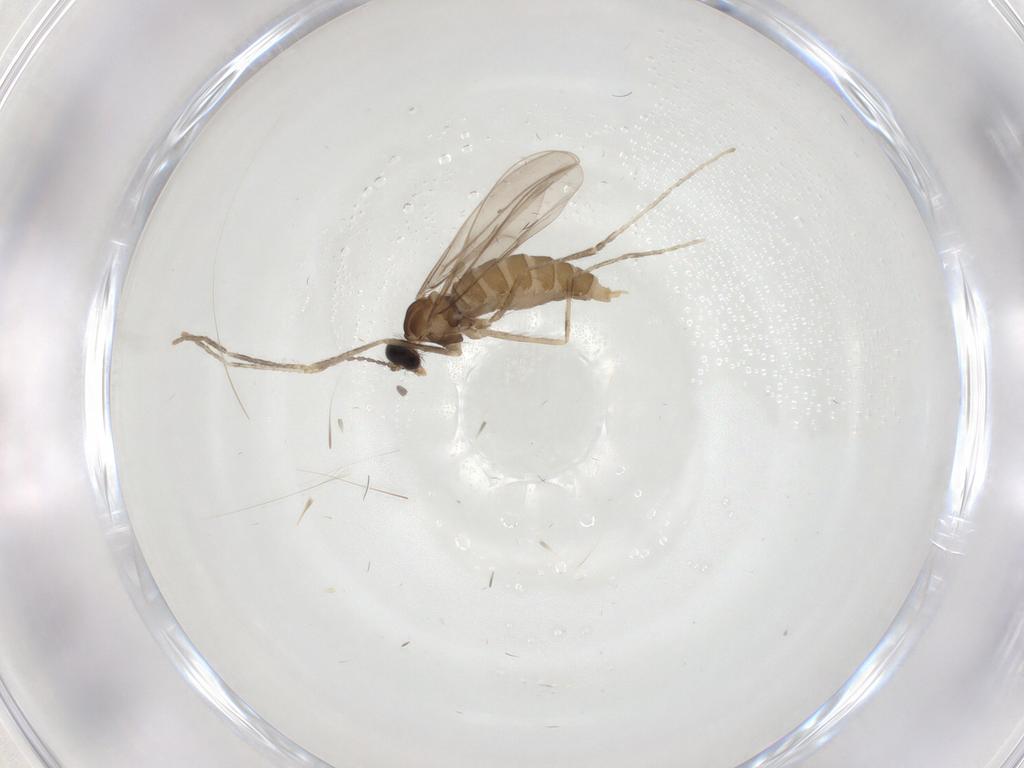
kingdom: Animalia
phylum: Arthropoda
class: Insecta
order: Diptera
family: Cecidomyiidae
